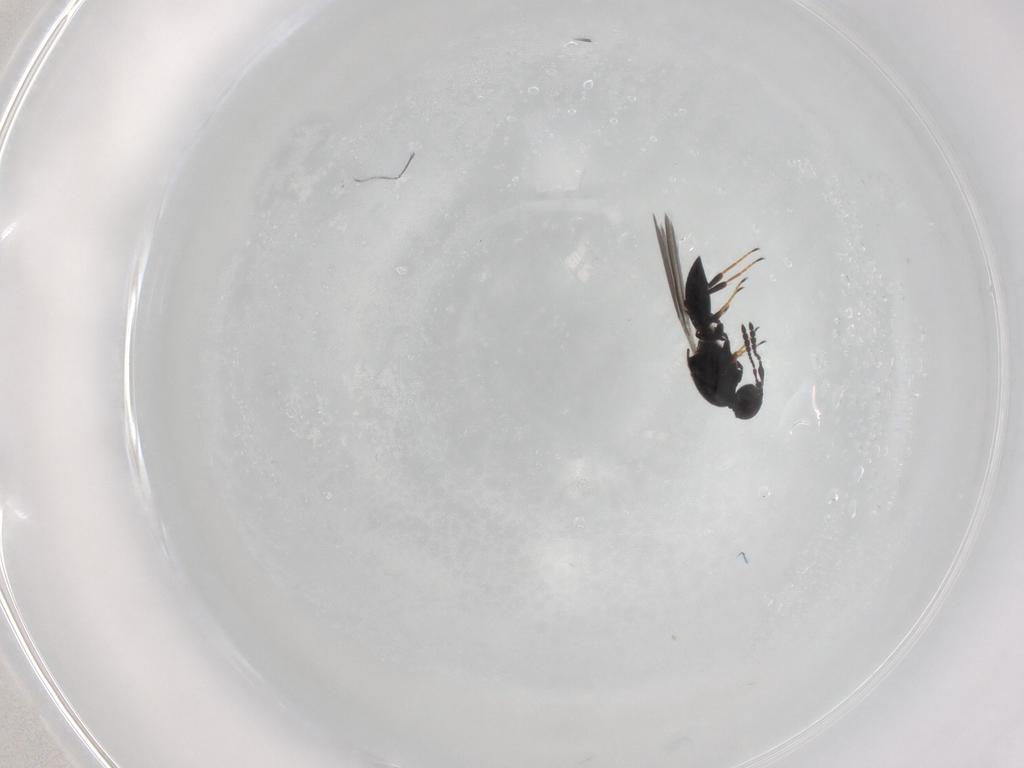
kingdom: Animalia
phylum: Arthropoda
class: Insecta
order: Hymenoptera
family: Platygastridae
